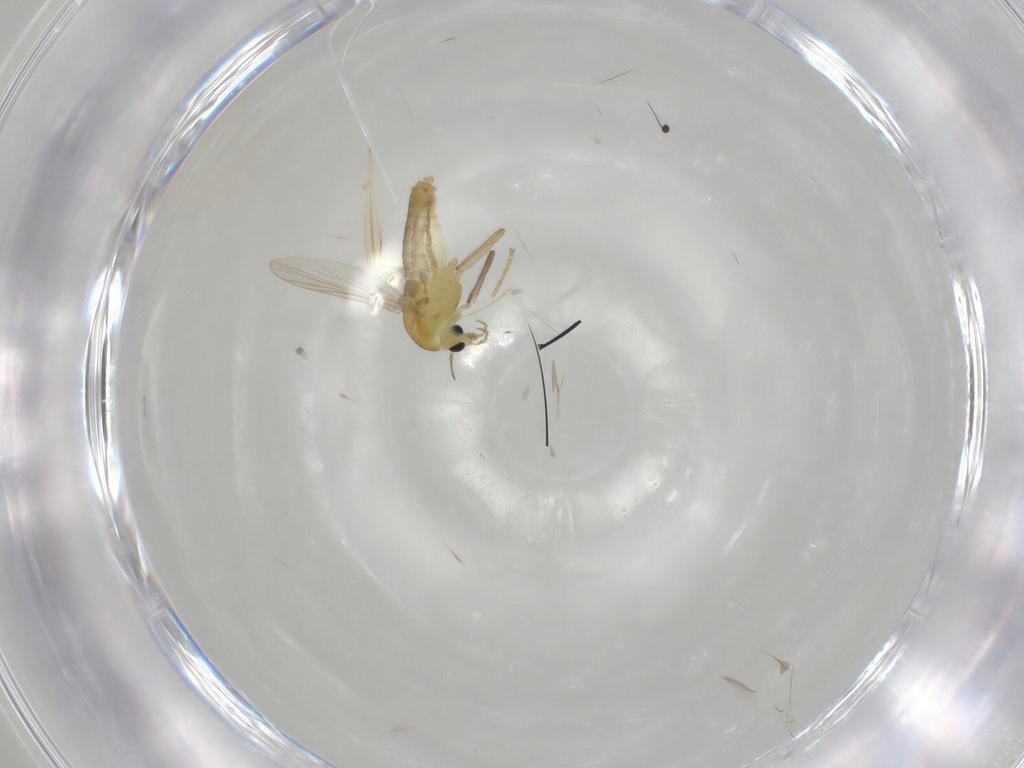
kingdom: Animalia
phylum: Arthropoda
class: Insecta
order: Diptera
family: Chironomidae
